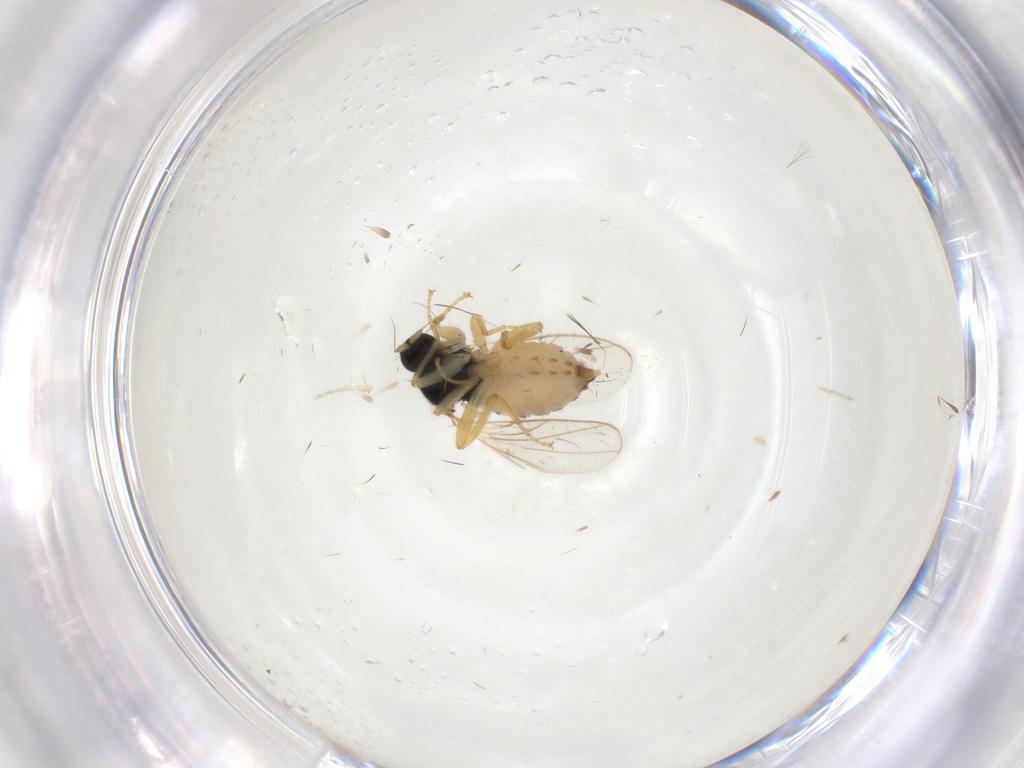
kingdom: Animalia
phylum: Arthropoda
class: Insecta
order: Diptera
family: Hybotidae
